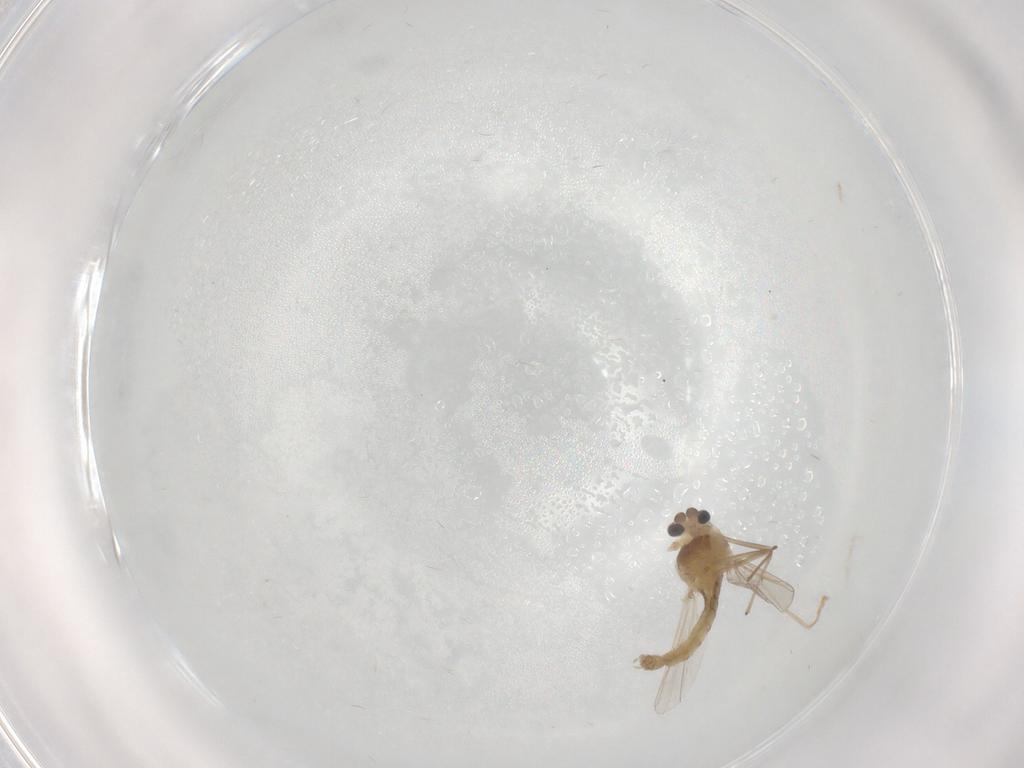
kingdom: Animalia
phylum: Arthropoda
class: Insecta
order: Diptera
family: Chironomidae
